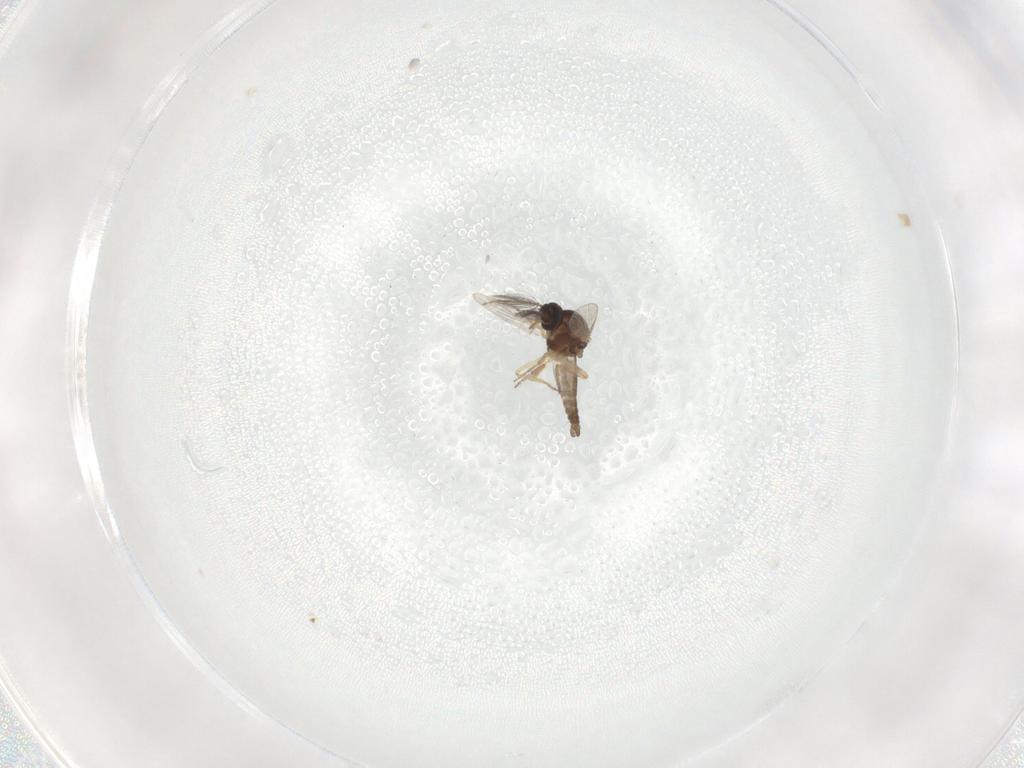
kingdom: Animalia
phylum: Arthropoda
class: Insecta
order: Diptera
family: Ceratopogonidae
